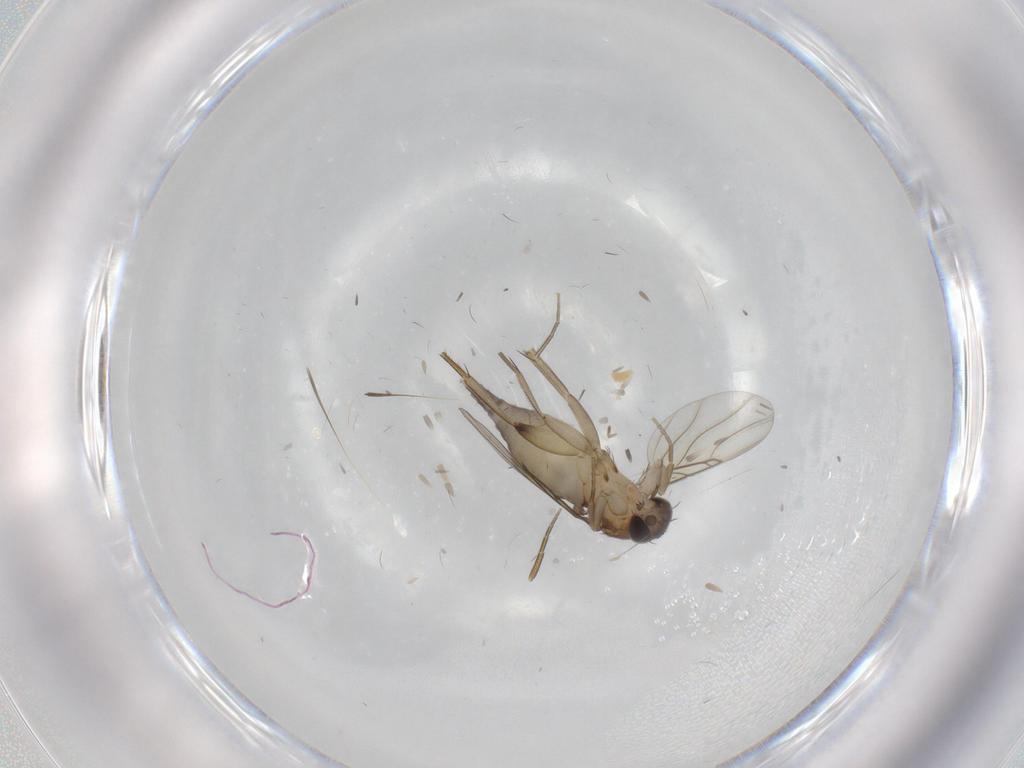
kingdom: Animalia
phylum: Arthropoda
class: Insecta
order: Diptera
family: Phoridae
